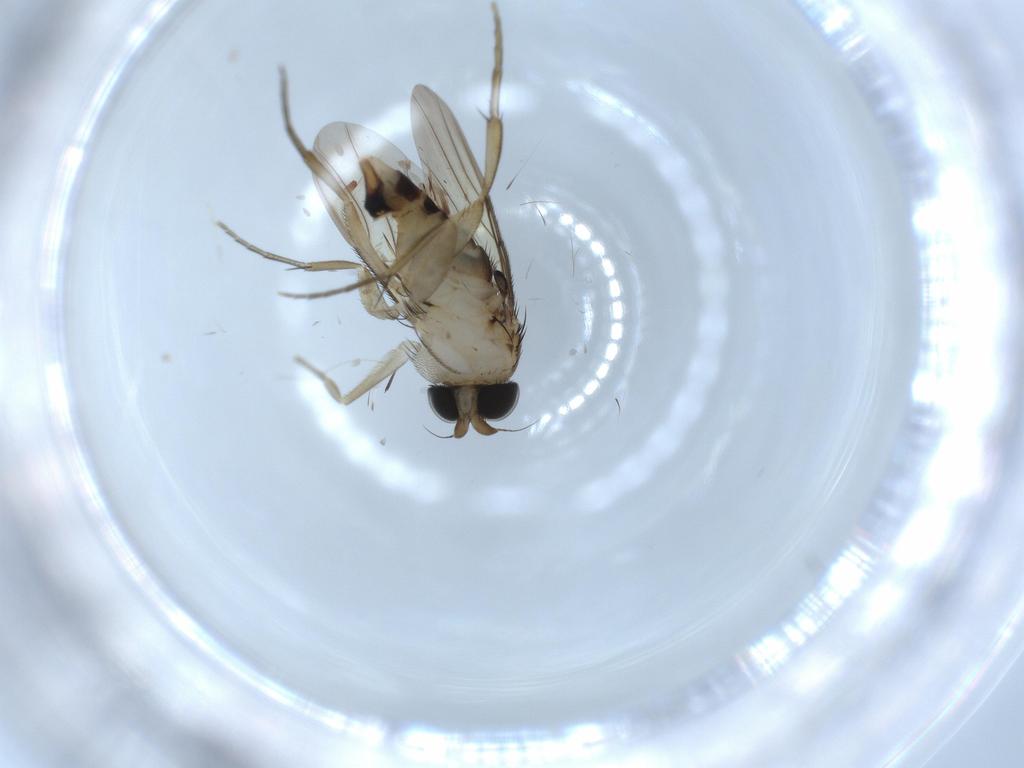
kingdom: Animalia
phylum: Arthropoda
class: Insecta
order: Diptera
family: Phoridae
